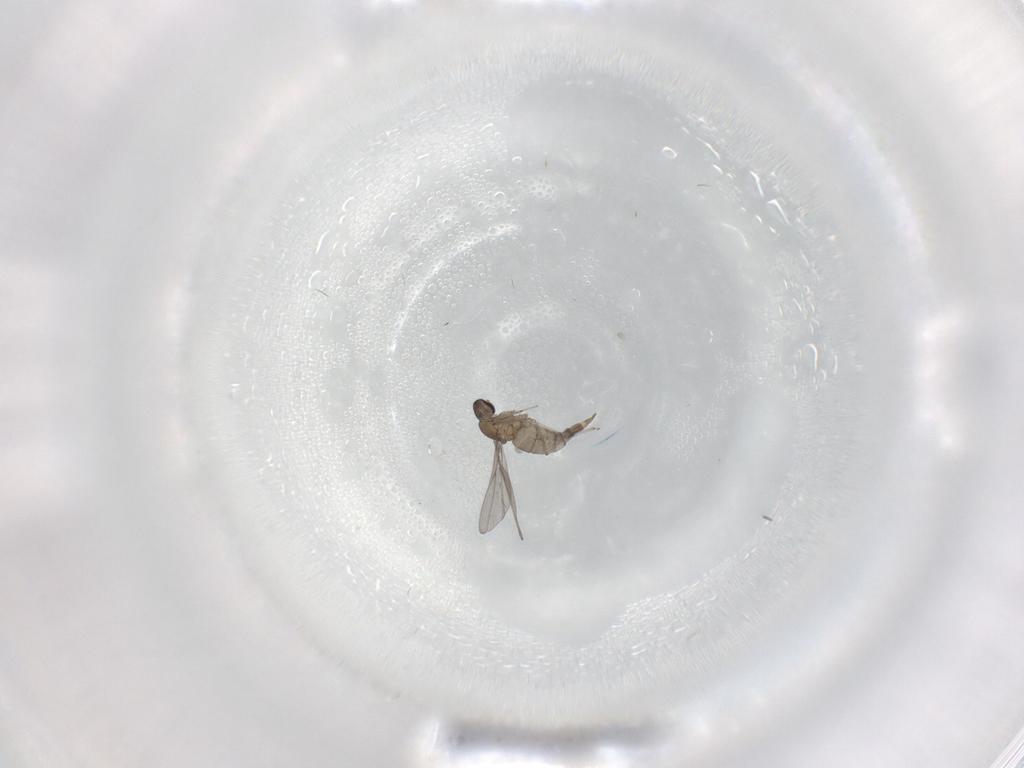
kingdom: Animalia
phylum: Arthropoda
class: Insecta
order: Diptera
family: Cecidomyiidae
